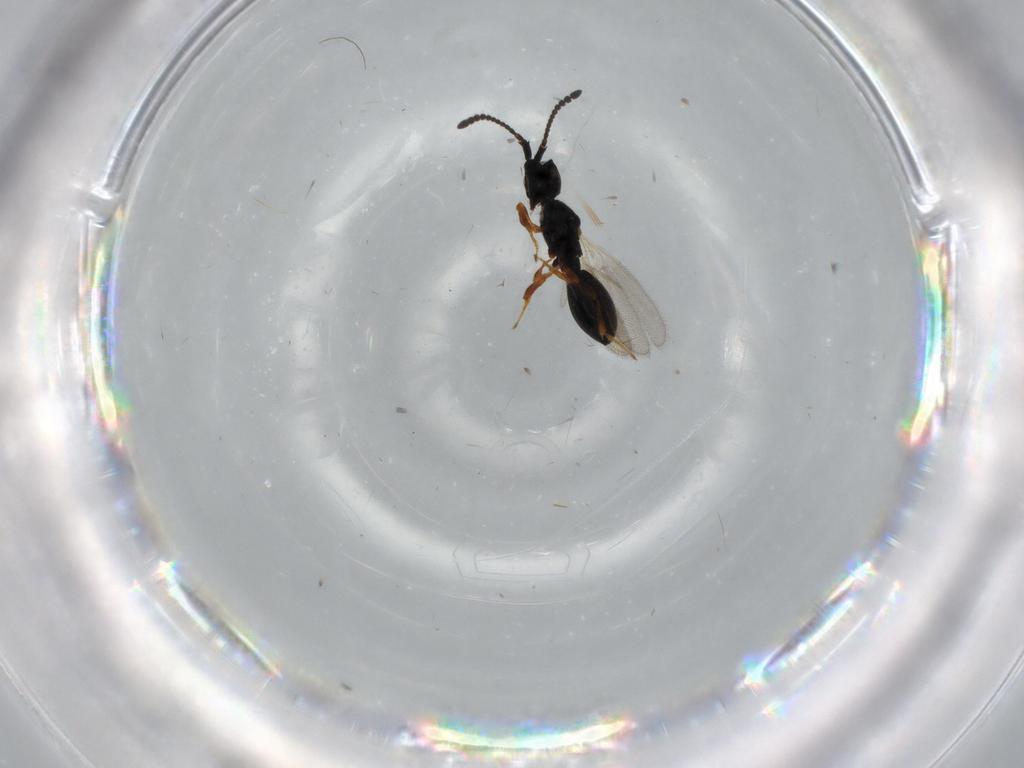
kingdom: Animalia
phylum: Arthropoda
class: Insecta
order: Hymenoptera
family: Diapriidae
